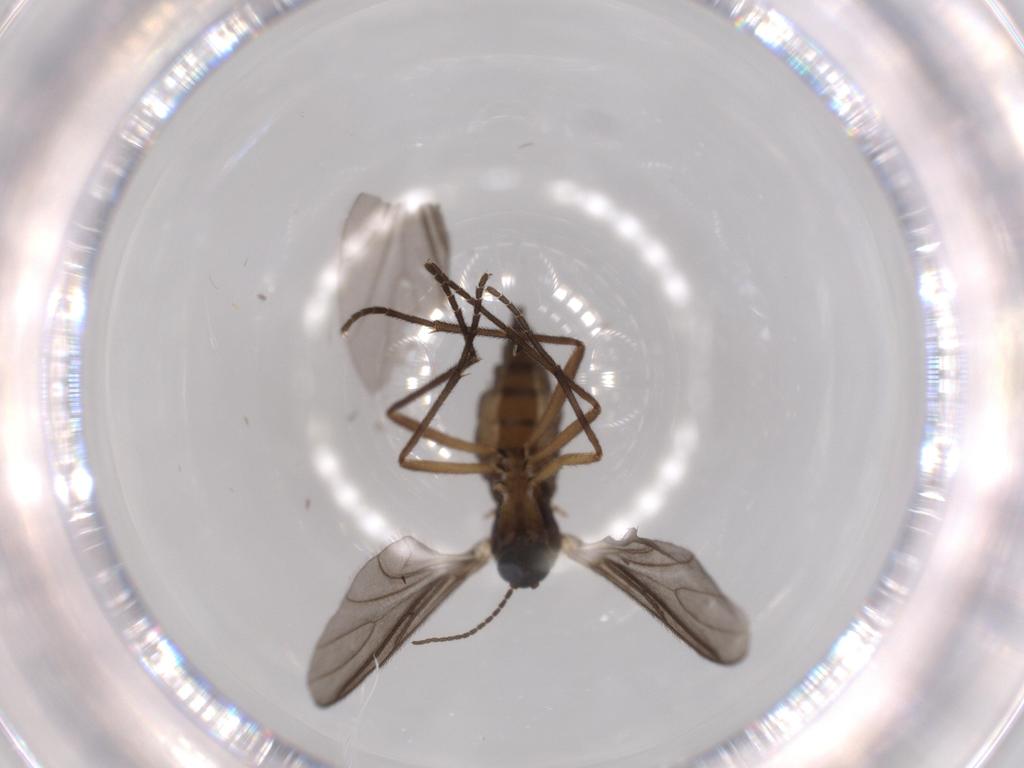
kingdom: Animalia
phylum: Arthropoda
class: Insecta
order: Diptera
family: Sciaridae
